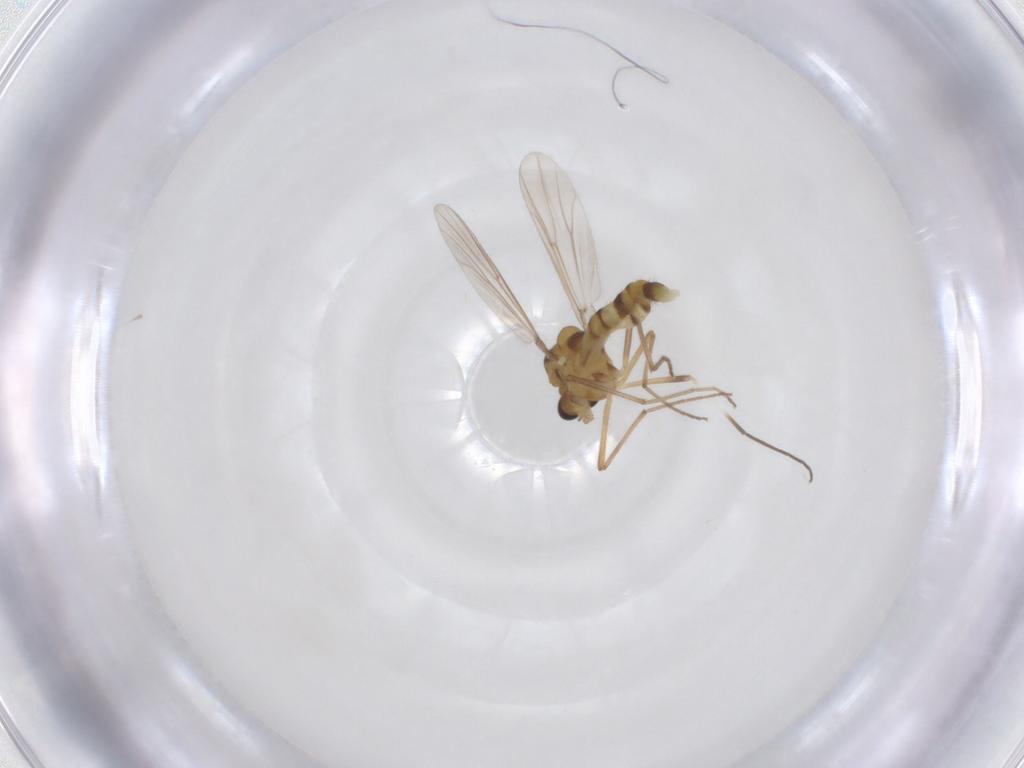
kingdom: Animalia
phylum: Arthropoda
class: Insecta
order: Diptera
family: Chironomidae
